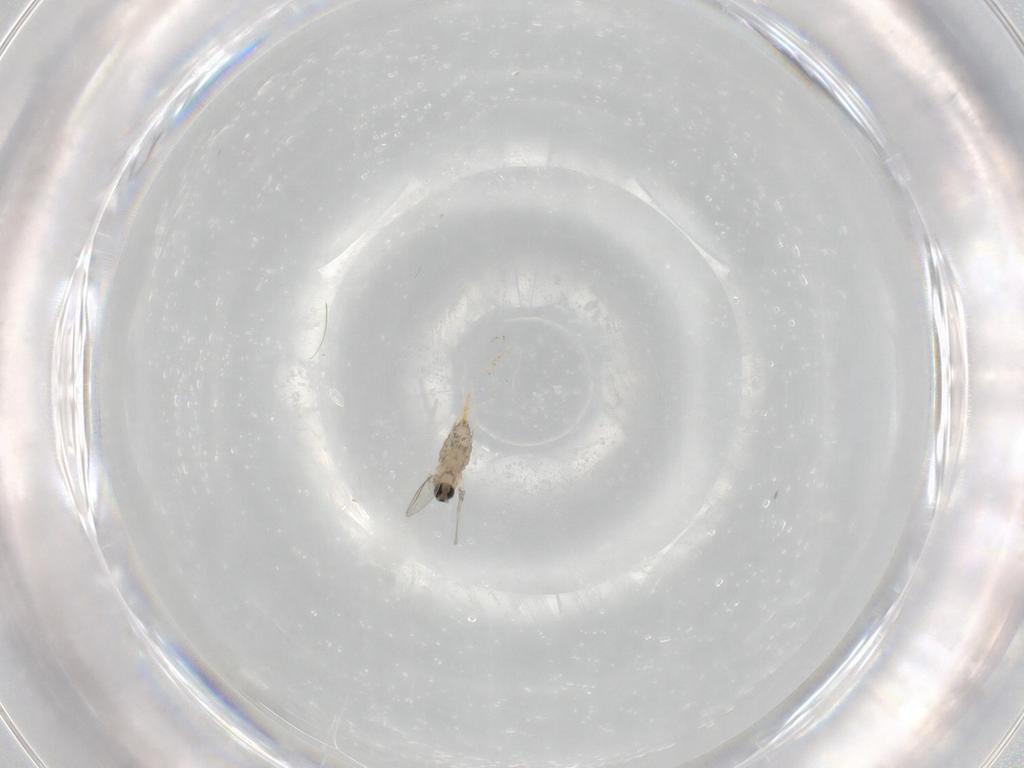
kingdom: Animalia
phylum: Arthropoda
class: Insecta
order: Diptera
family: Cecidomyiidae
